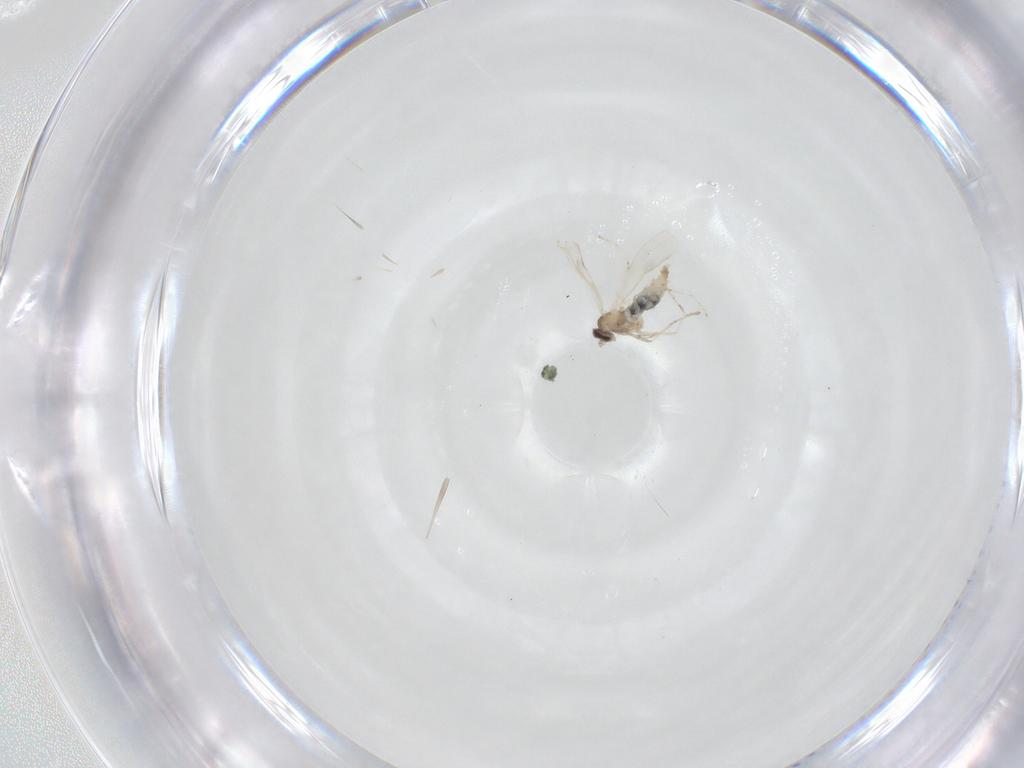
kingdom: Animalia
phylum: Arthropoda
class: Insecta
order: Diptera
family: Cecidomyiidae
